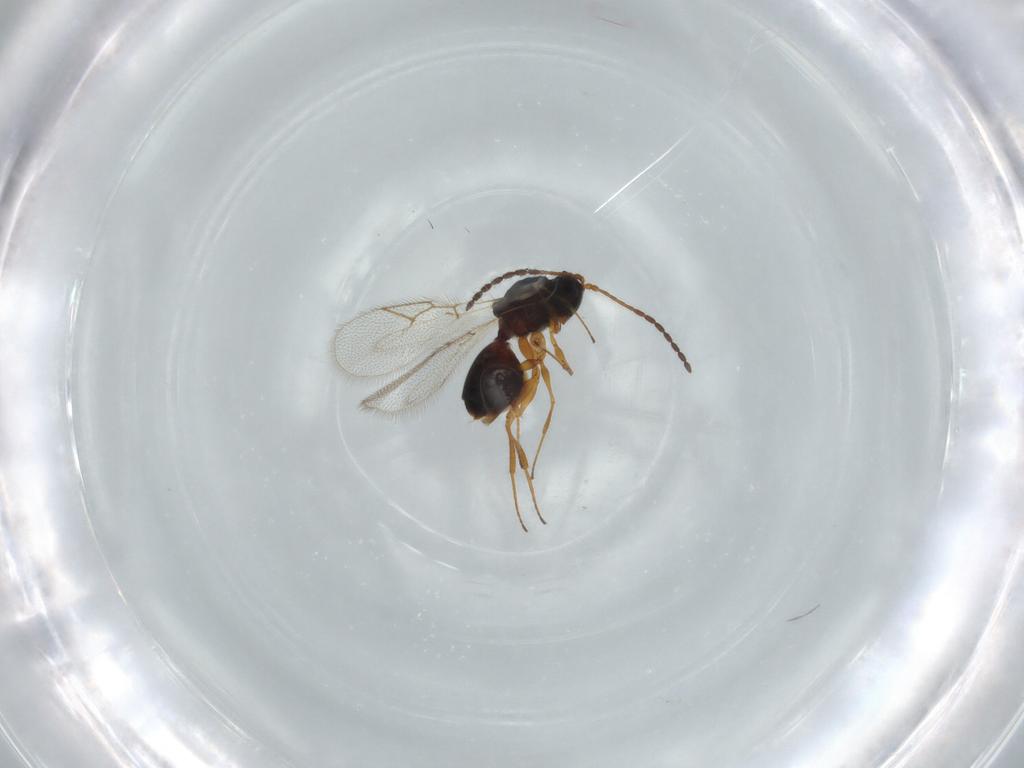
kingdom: Animalia
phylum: Arthropoda
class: Insecta
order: Hymenoptera
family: Figitidae
